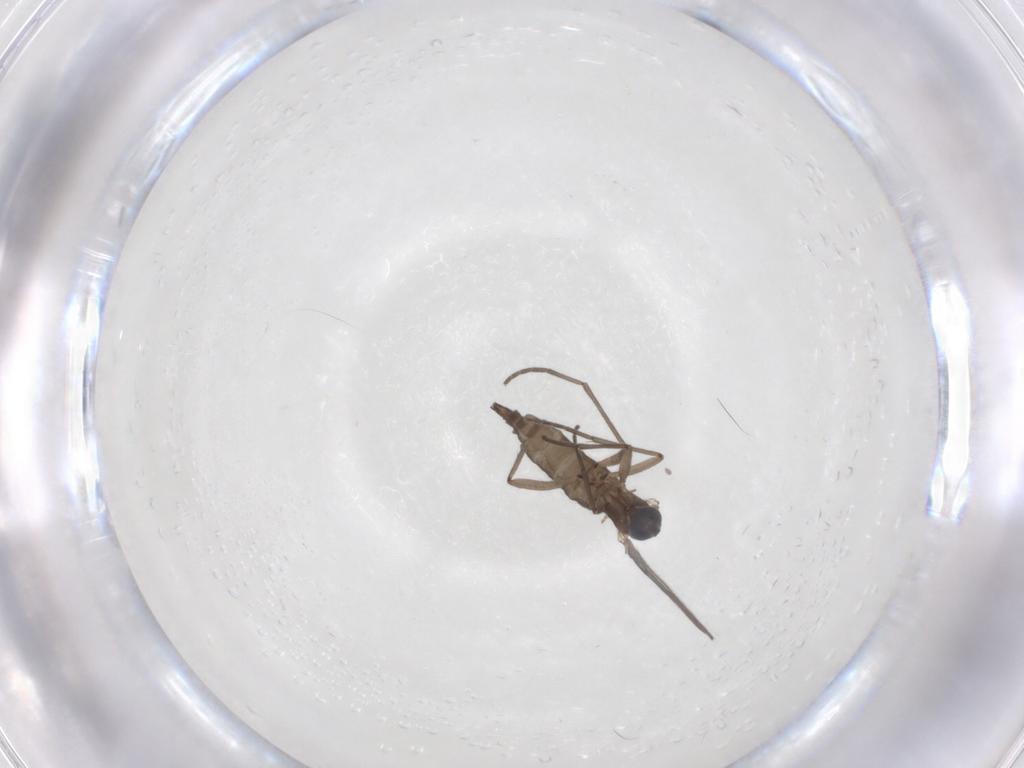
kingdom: Animalia
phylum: Arthropoda
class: Insecta
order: Diptera
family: Sciaridae
